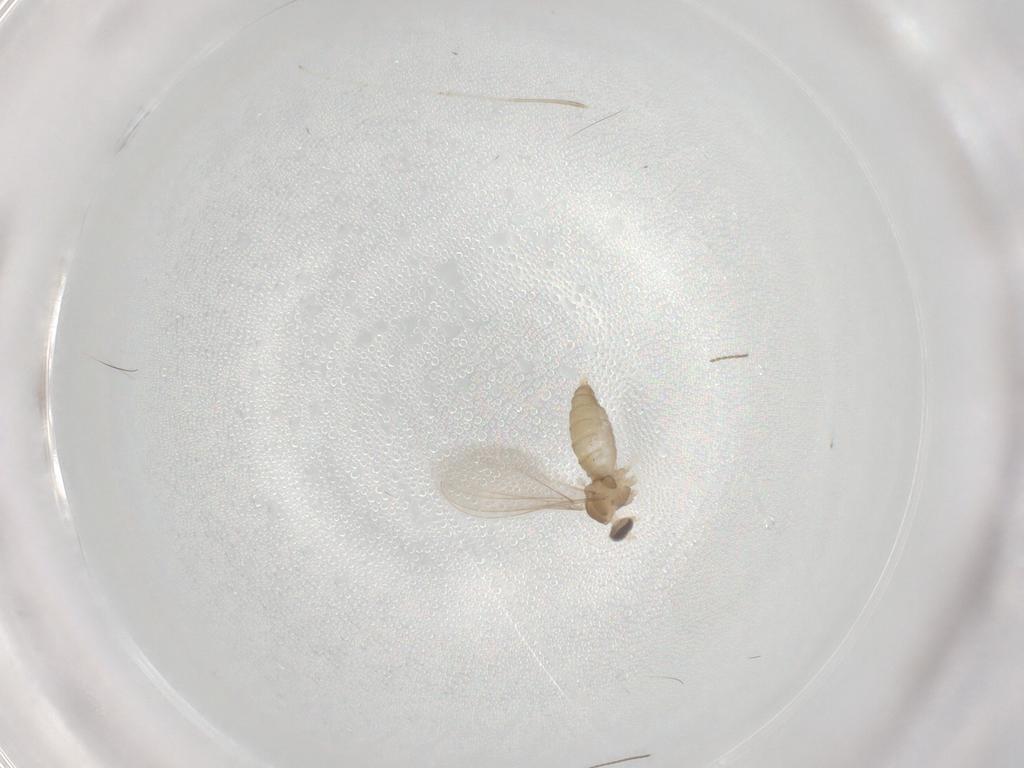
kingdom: Animalia
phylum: Arthropoda
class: Insecta
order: Diptera
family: Cecidomyiidae
